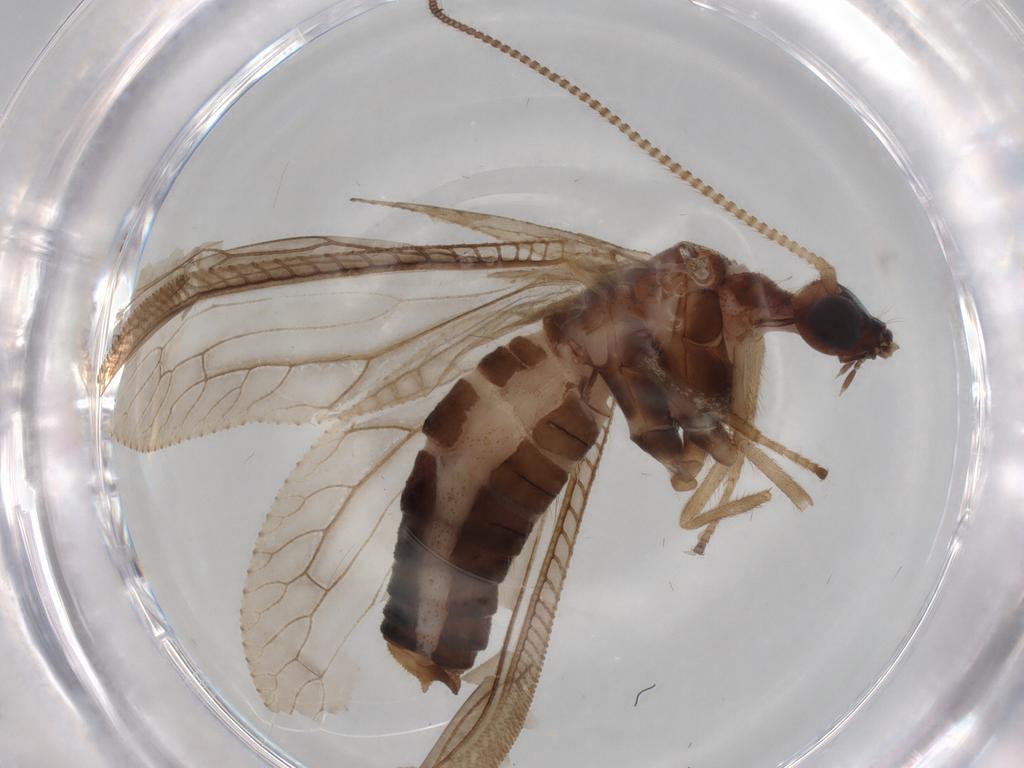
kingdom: Animalia
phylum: Arthropoda
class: Insecta
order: Neuroptera
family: Hemerobiidae
